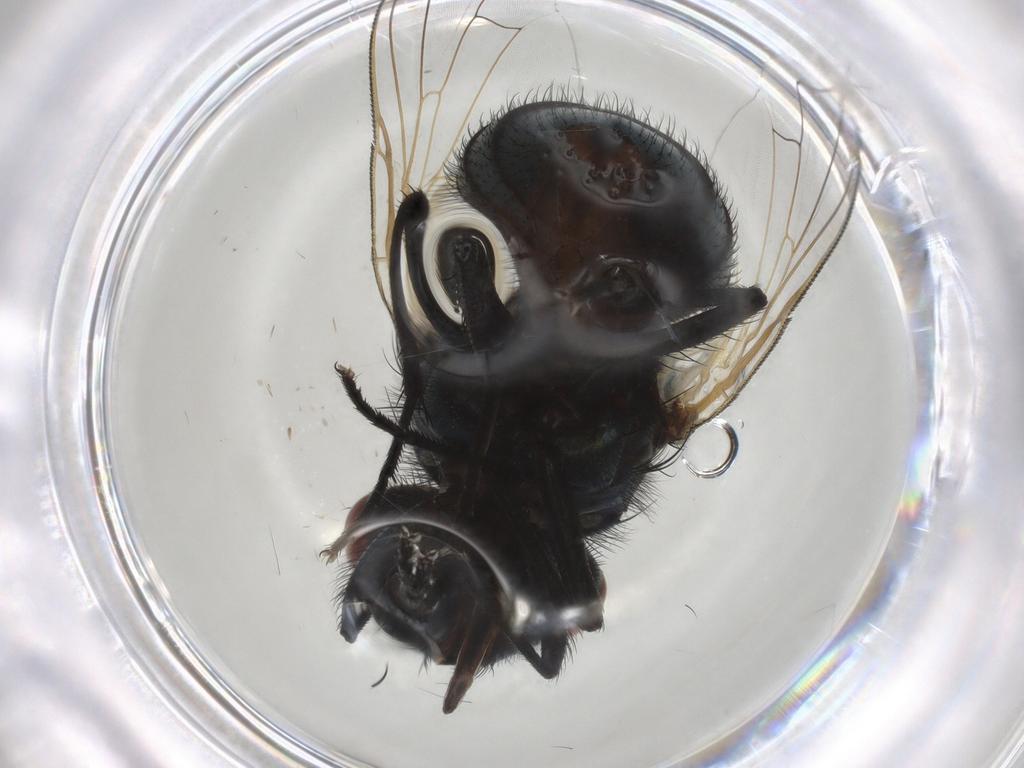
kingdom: Animalia
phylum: Arthropoda
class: Insecta
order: Diptera
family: Muscidae
